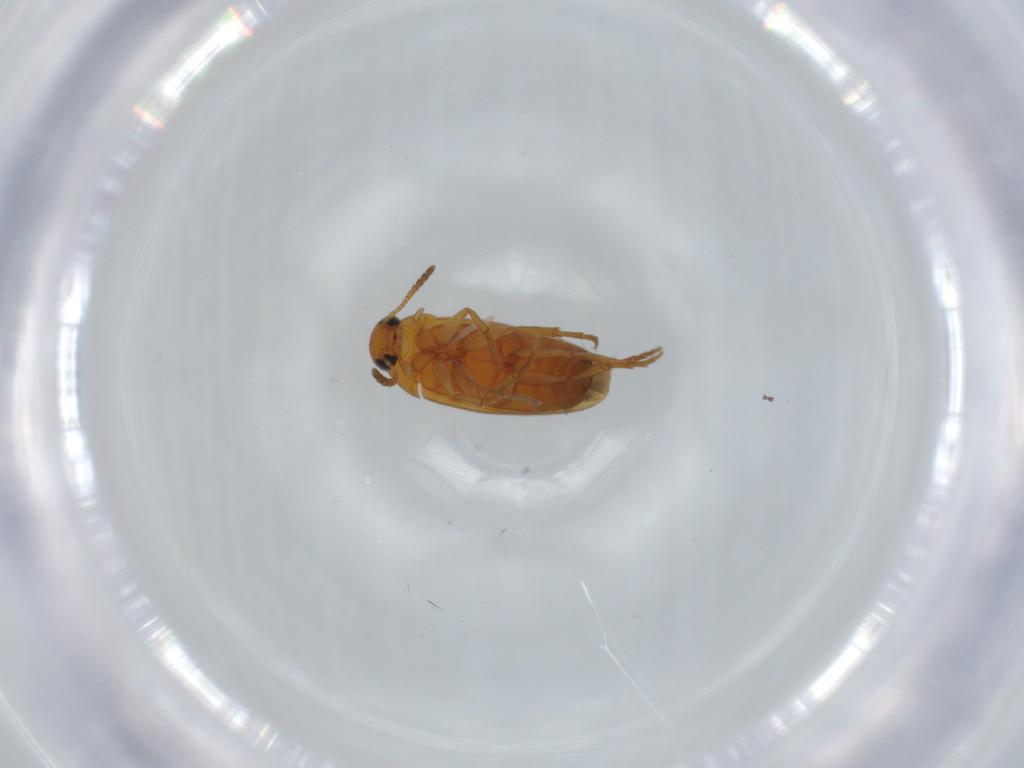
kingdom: Animalia
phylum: Arthropoda
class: Insecta
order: Coleoptera
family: Scraptiidae
